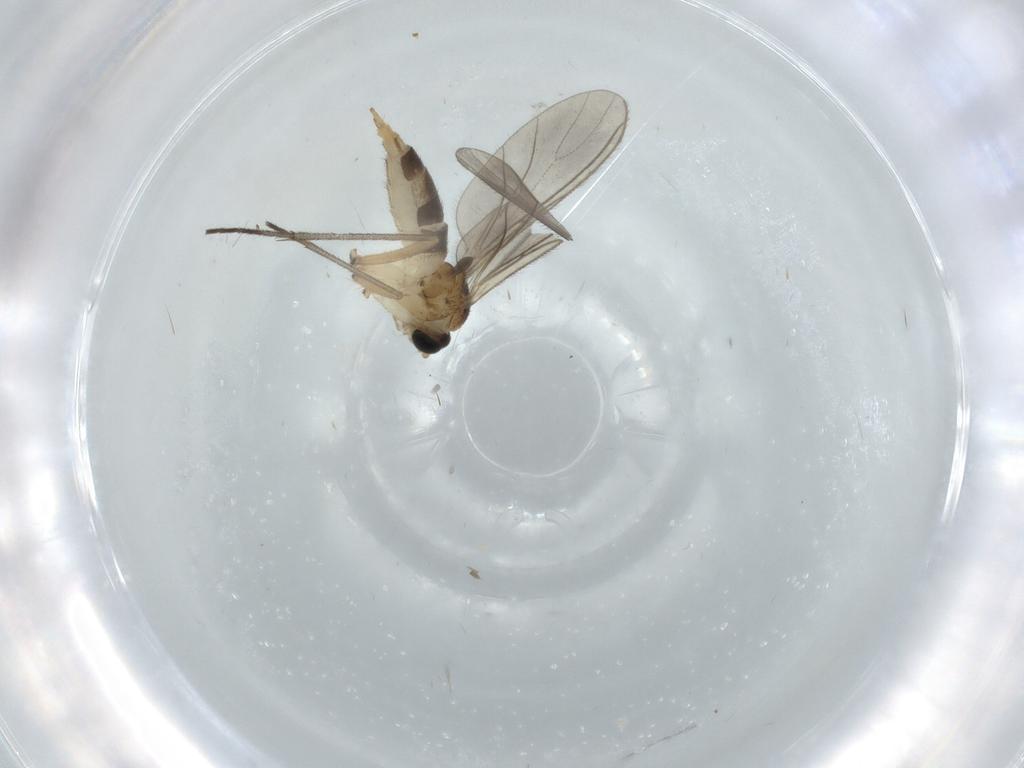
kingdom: Animalia
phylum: Arthropoda
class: Insecta
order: Diptera
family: Sciaridae
